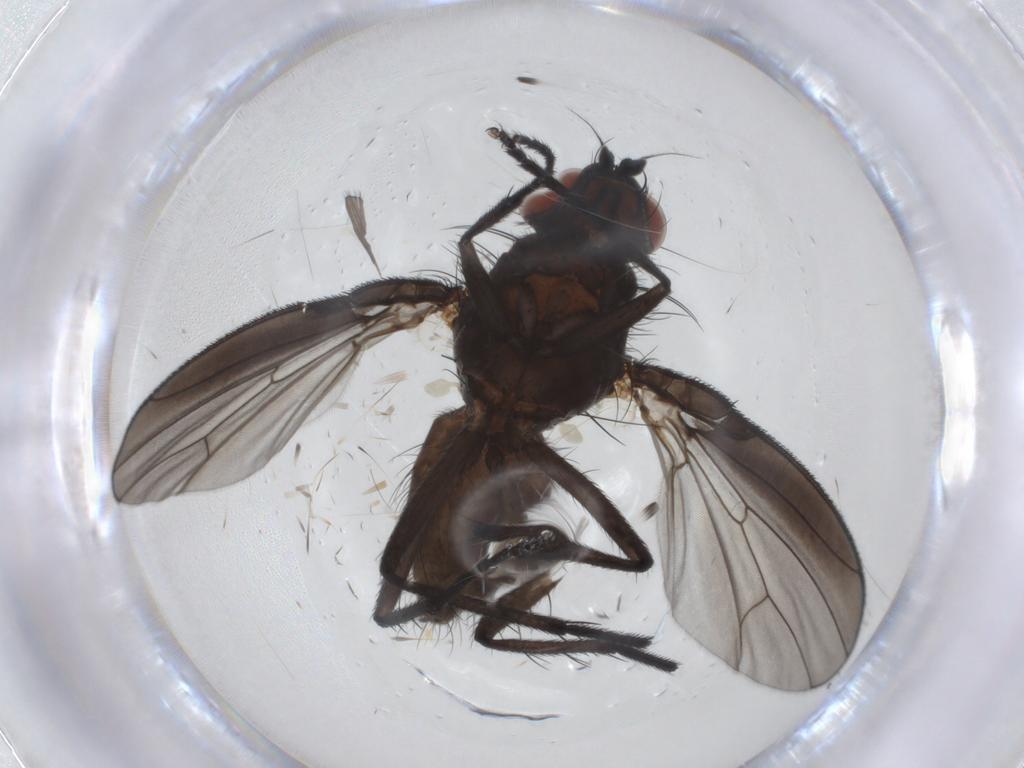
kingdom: Animalia
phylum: Arthropoda
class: Insecta
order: Diptera
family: Anthomyiidae
